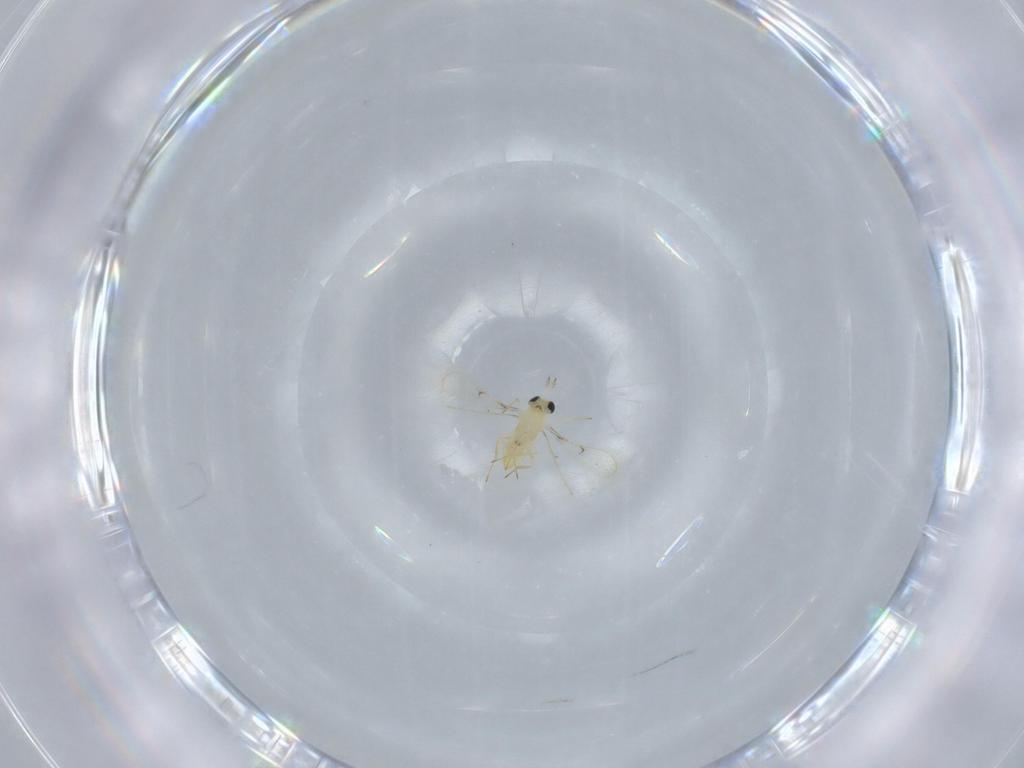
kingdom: Animalia
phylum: Arthropoda
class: Insecta
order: Hymenoptera
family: Trichogrammatidae
